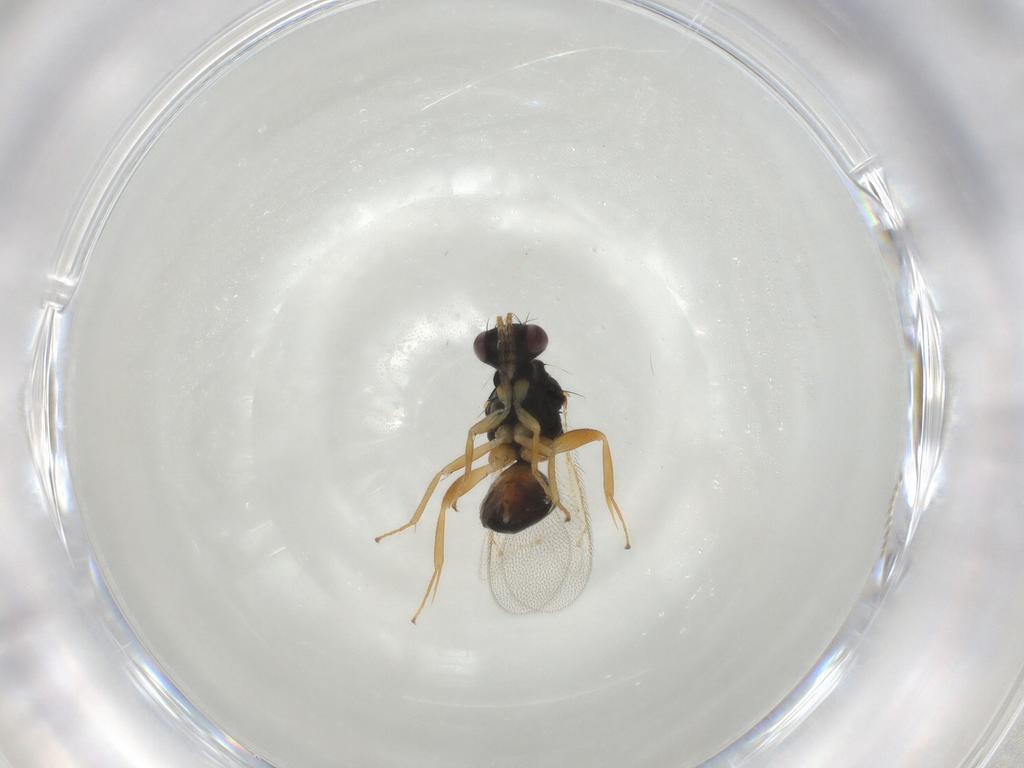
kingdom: Animalia
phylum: Arthropoda
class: Insecta
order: Hymenoptera
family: Eulophidae
